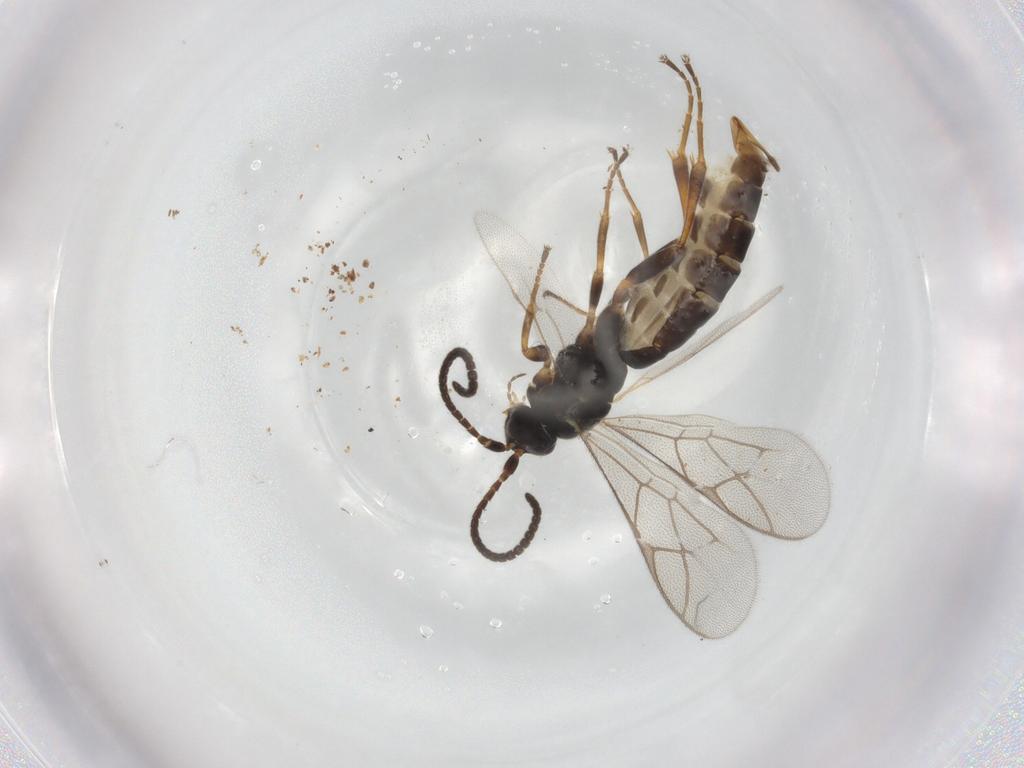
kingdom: Animalia
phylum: Arthropoda
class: Insecta
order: Hymenoptera
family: Ichneumonidae
